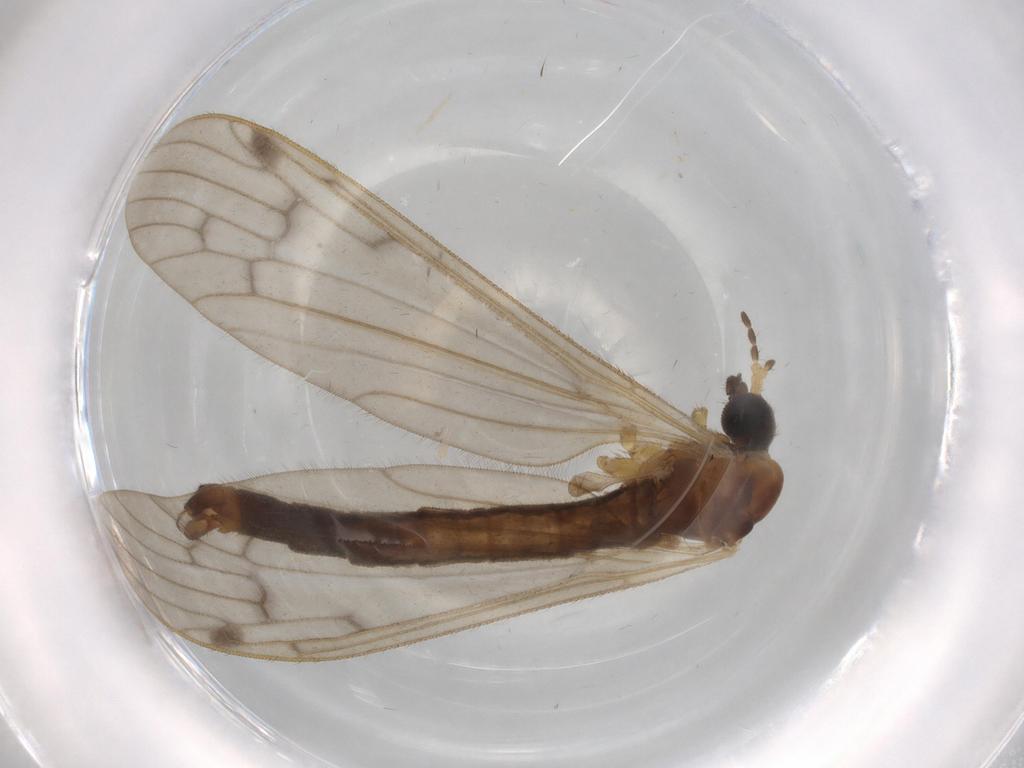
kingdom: Animalia
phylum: Arthropoda
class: Insecta
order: Diptera
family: Cecidomyiidae
